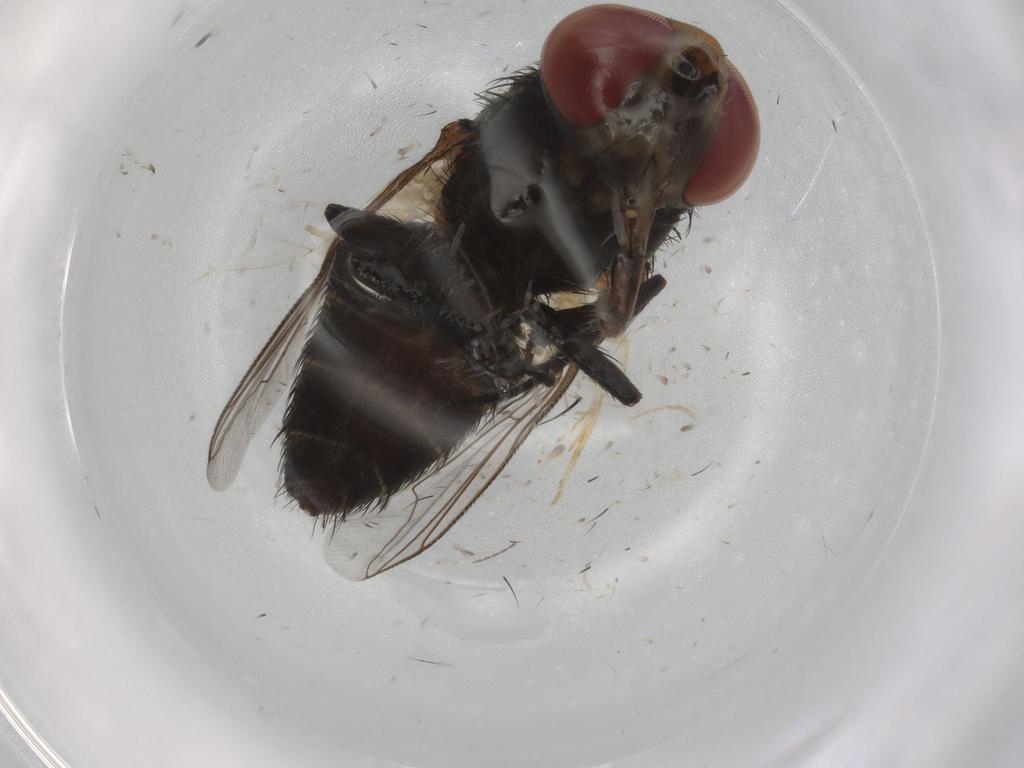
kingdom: Animalia
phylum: Arthropoda
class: Insecta
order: Diptera
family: Sarcophagidae
